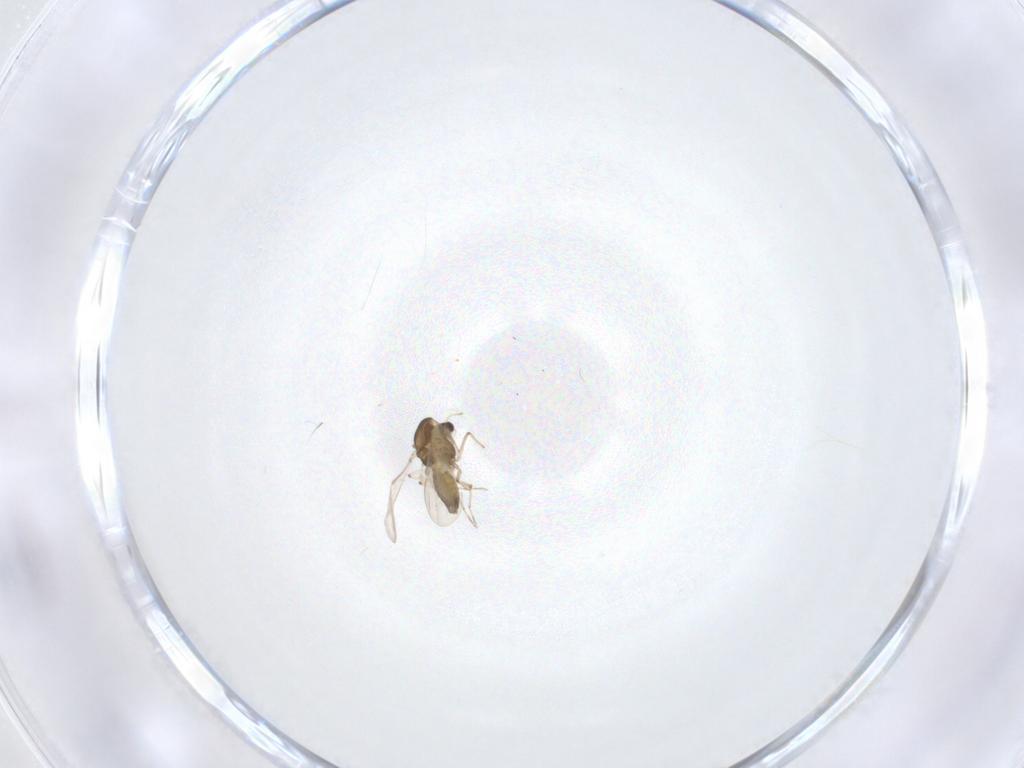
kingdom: Animalia
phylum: Arthropoda
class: Insecta
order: Diptera
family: Chironomidae
